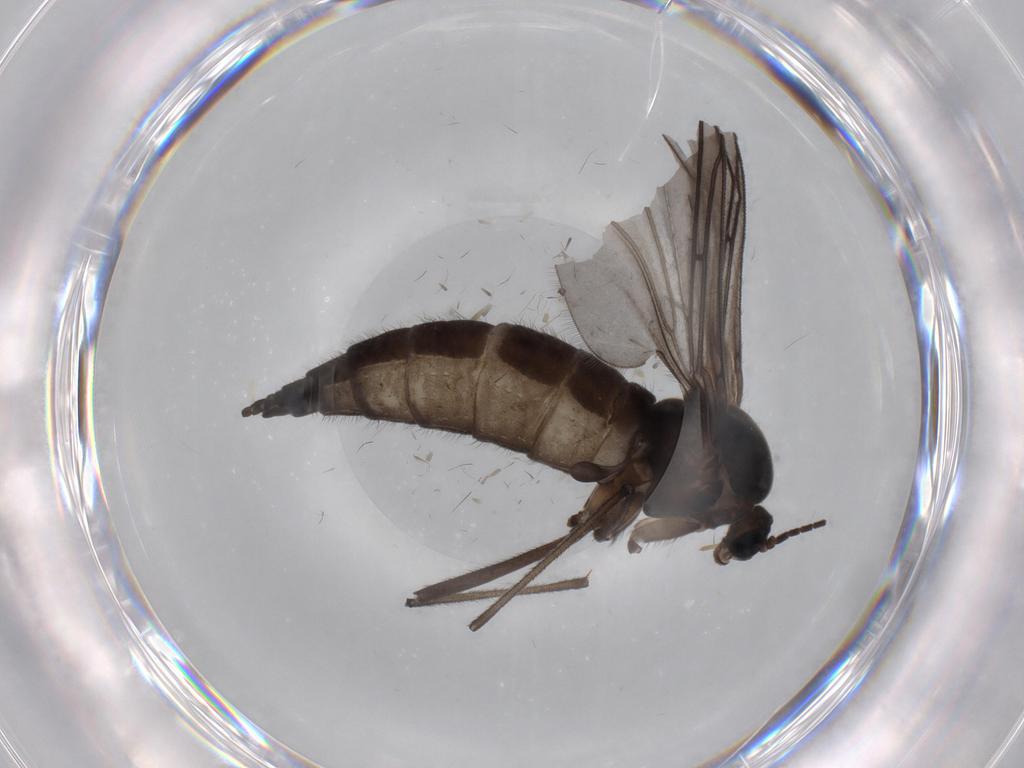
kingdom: Animalia
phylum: Arthropoda
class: Insecta
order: Diptera
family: Sciaridae
